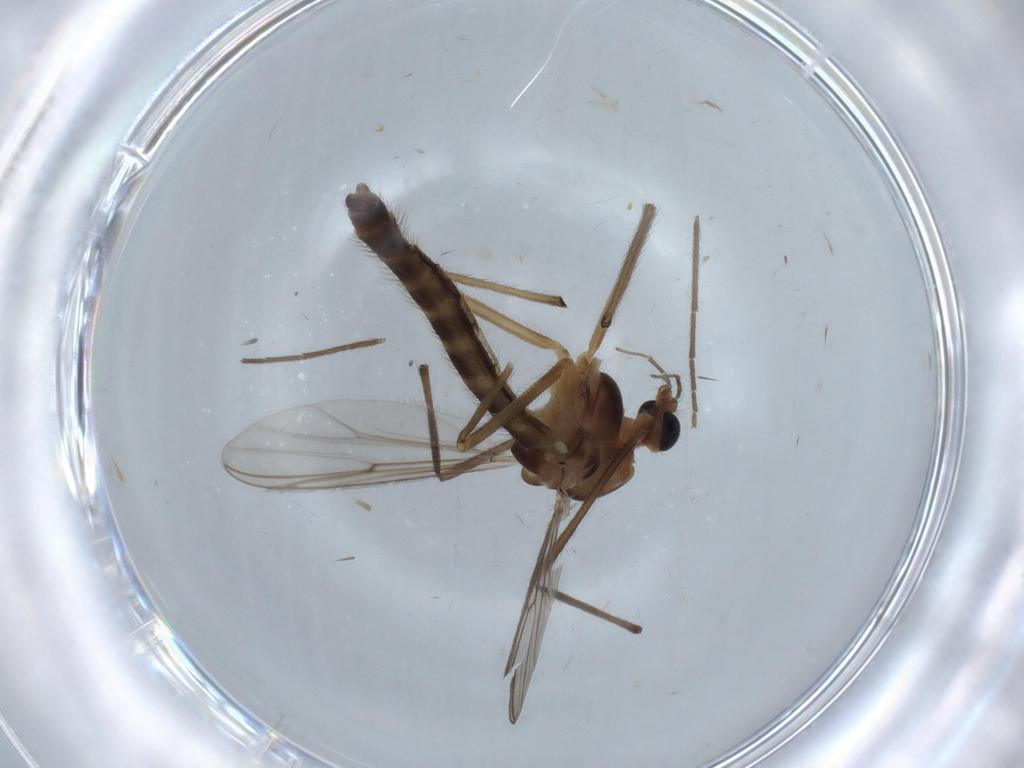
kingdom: Animalia
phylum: Arthropoda
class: Insecta
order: Diptera
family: Chironomidae
